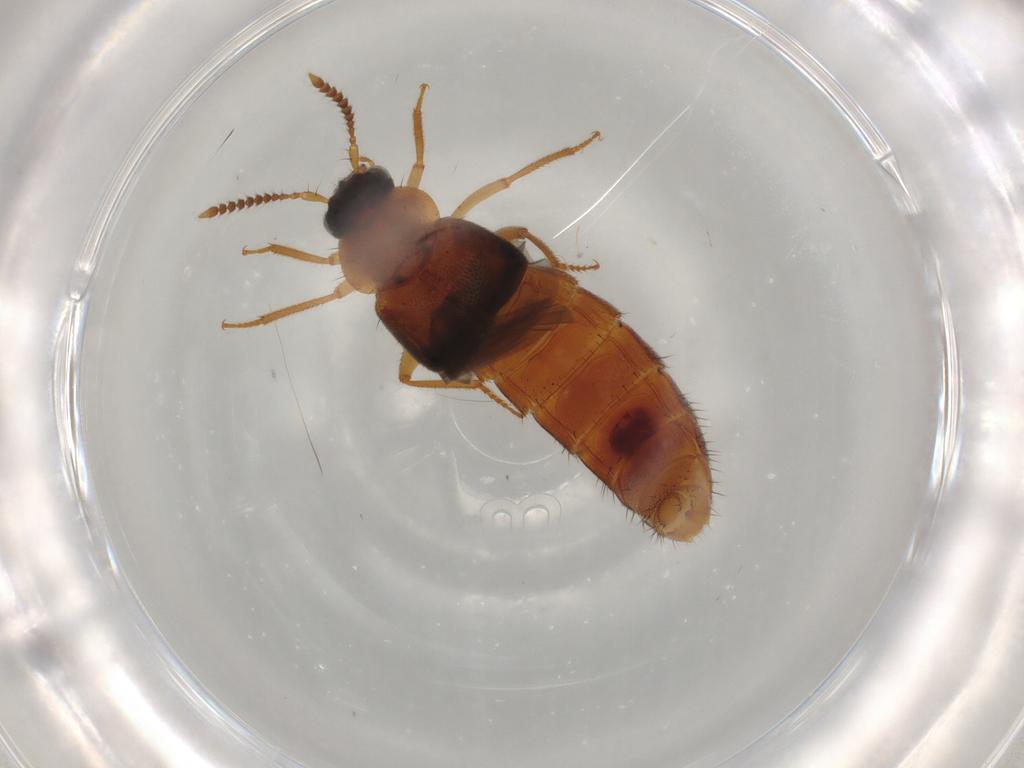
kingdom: Animalia
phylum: Arthropoda
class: Insecta
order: Coleoptera
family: Staphylinidae
